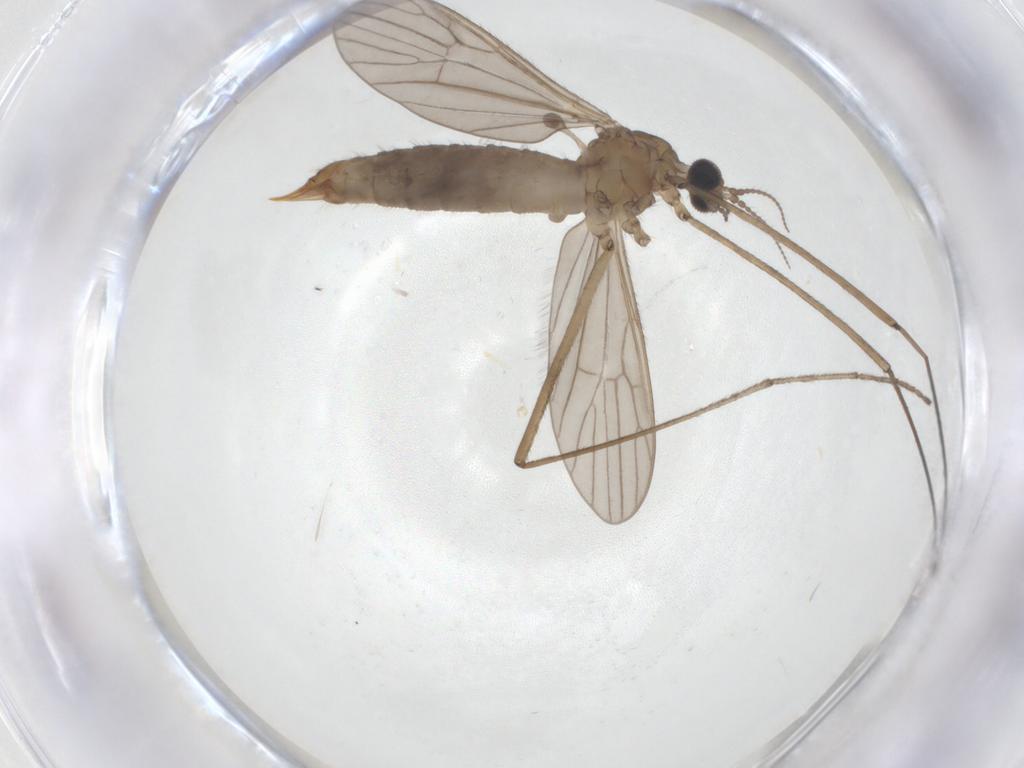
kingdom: Animalia
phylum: Arthropoda
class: Insecta
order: Diptera
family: Limoniidae
